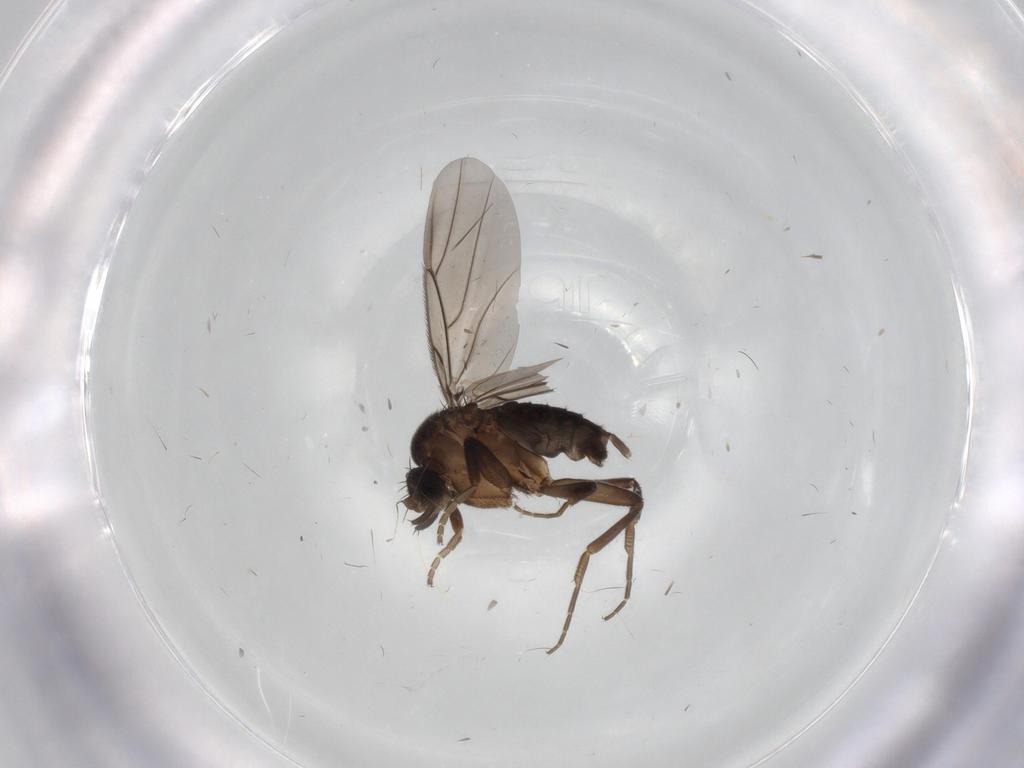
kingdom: Animalia
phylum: Arthropoda
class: Insecta
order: Diptera
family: Phoridae
